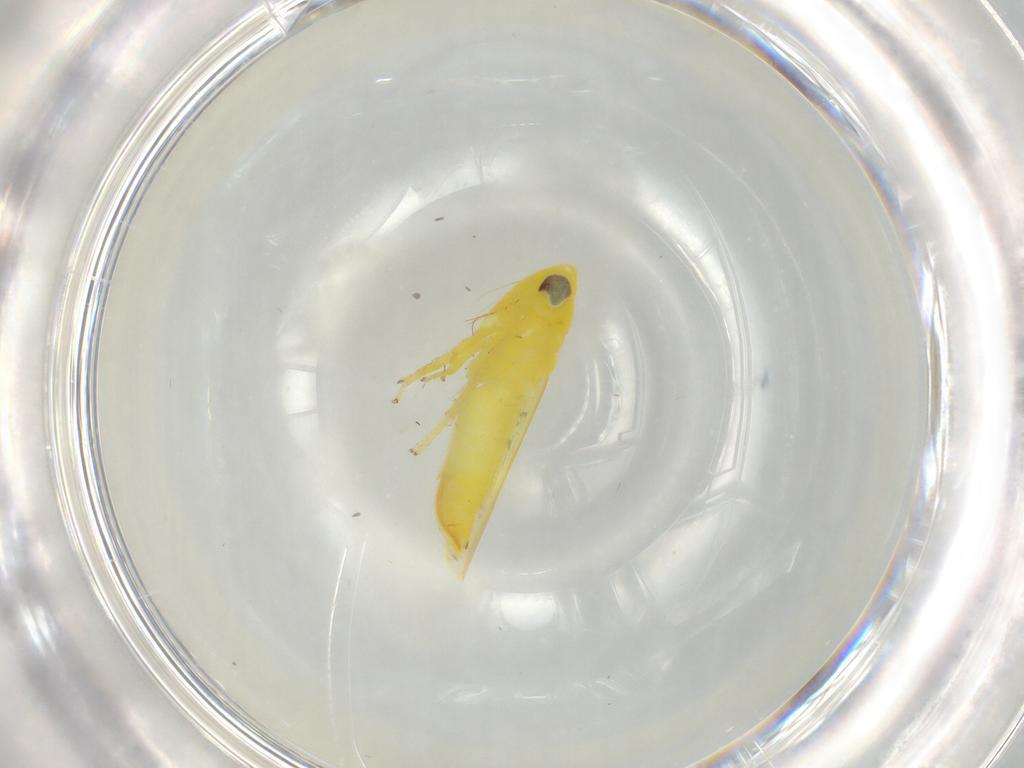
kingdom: Animalia
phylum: Arthropoda
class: Insecta
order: Hemiptera
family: Cicadellidae
